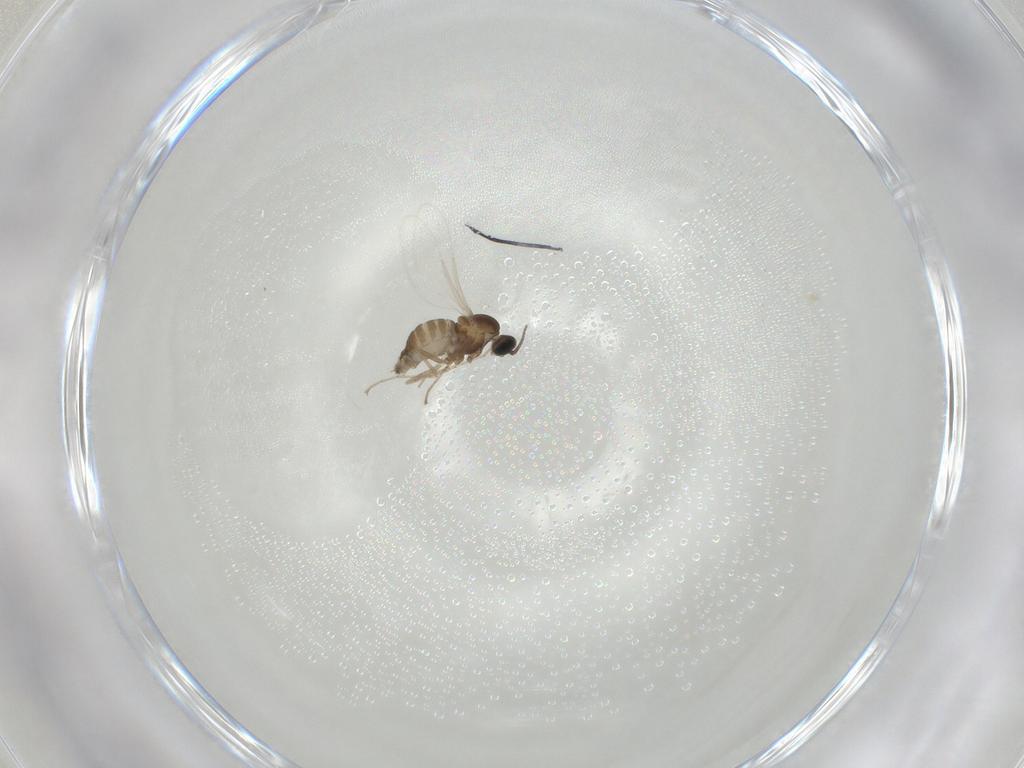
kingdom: Animalia
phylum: Arthropoda
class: Insecta
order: Diptera
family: Cecidomyiidae
